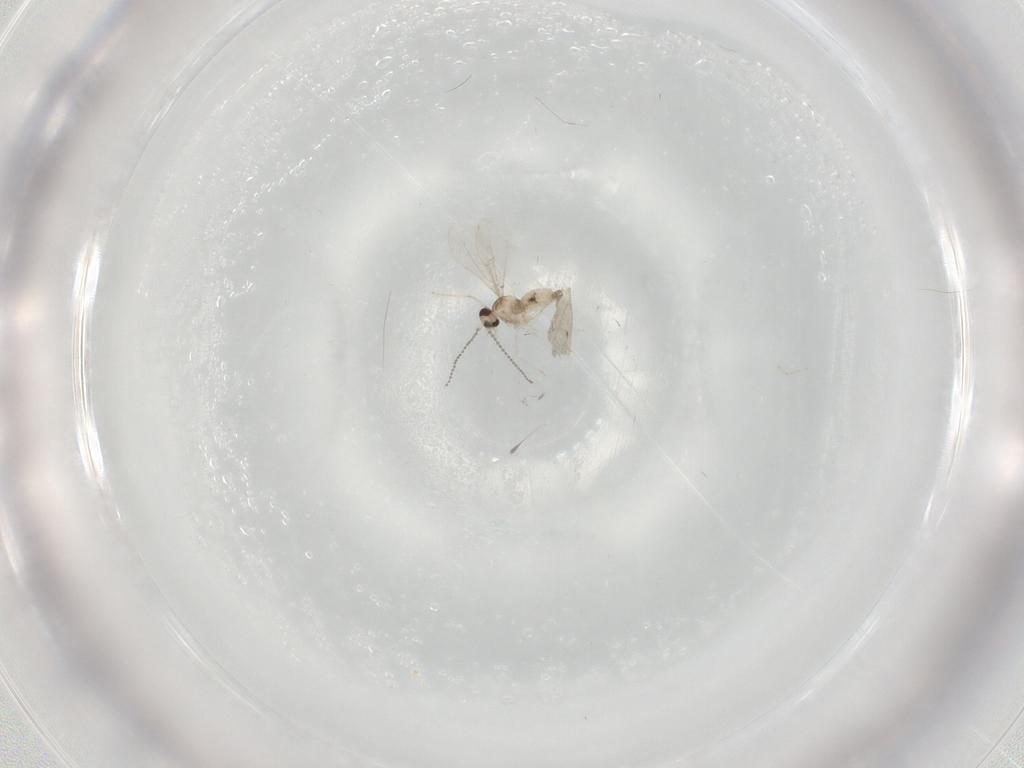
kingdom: Animalia
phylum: Arthropoda
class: Insecta
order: Diptera
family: Cecidomyiidae
